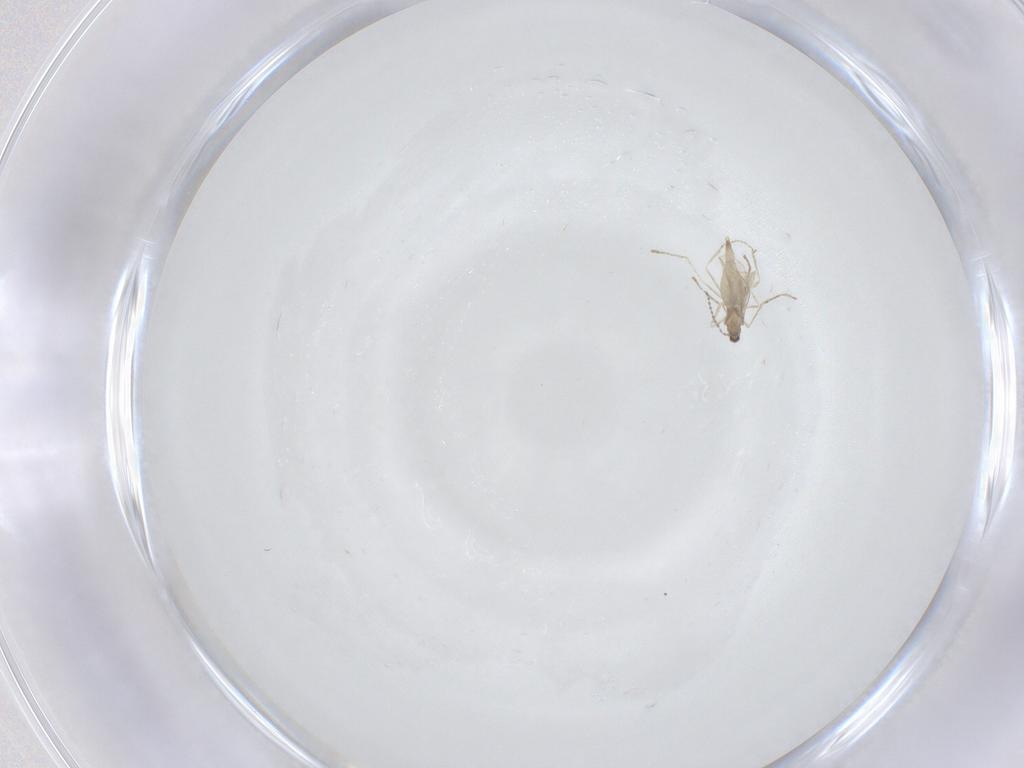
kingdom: Animalia
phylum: Arthropoda
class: Insecta
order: Diptera
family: Cecidomyiidae
